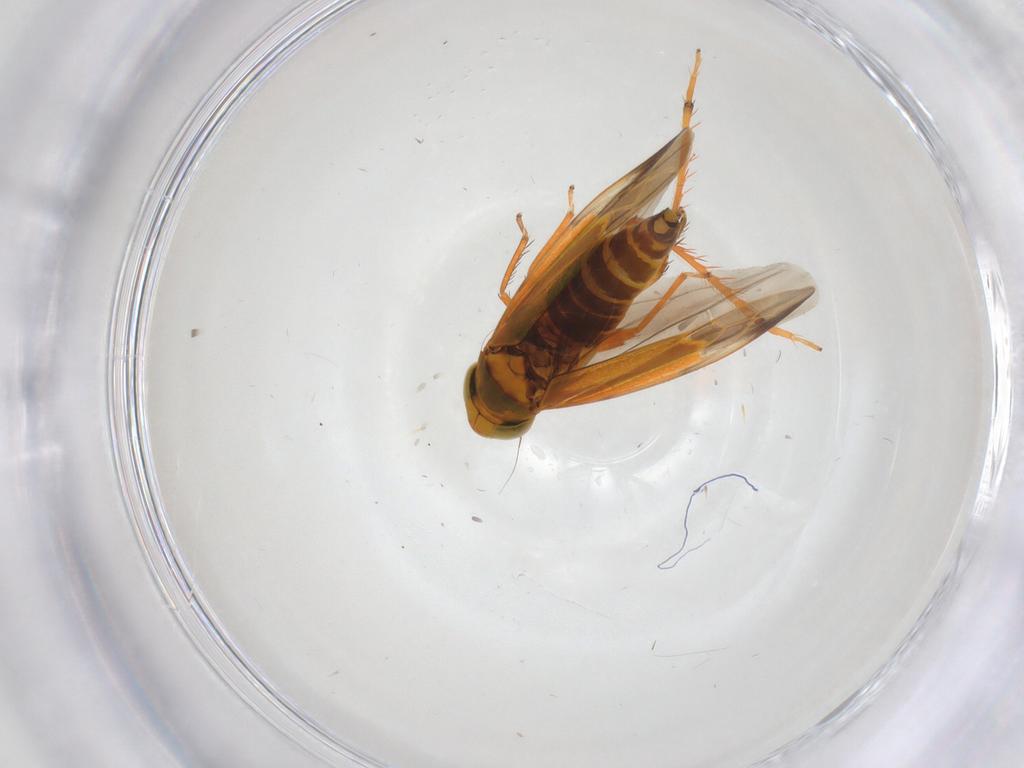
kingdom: Animalia
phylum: Arthropoda
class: Insecta
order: Hemiptera
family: Cicadellidae
